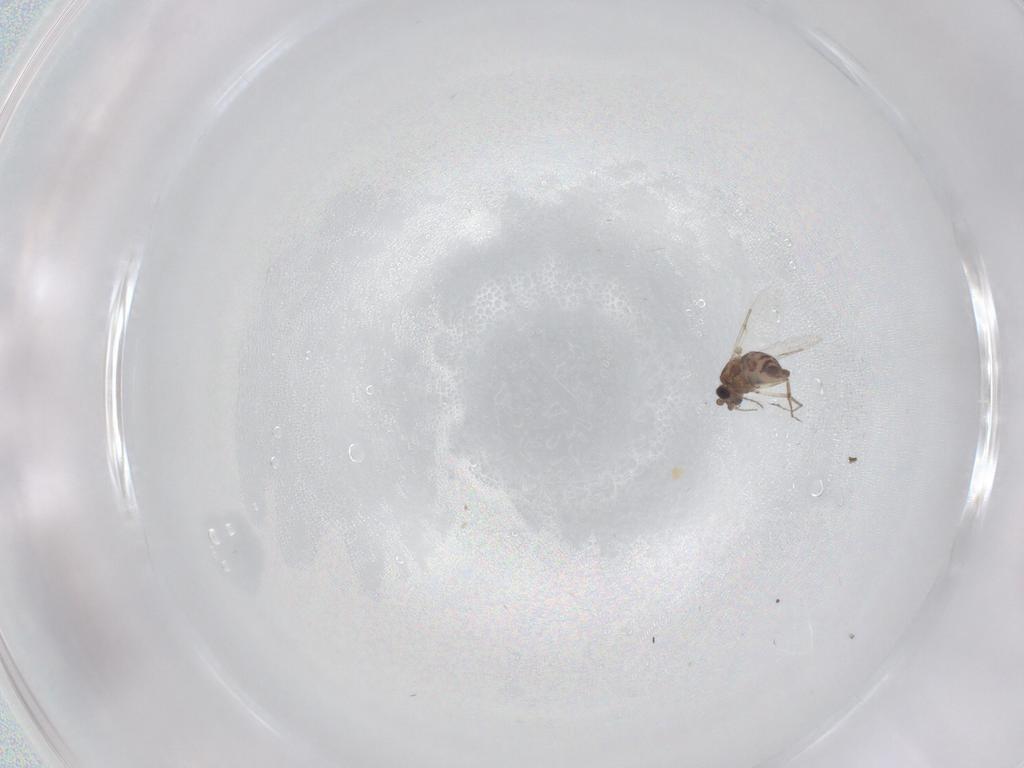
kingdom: Animalia
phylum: Arthropoda
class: Insecta
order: Diptera
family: Ceratopogonidae
